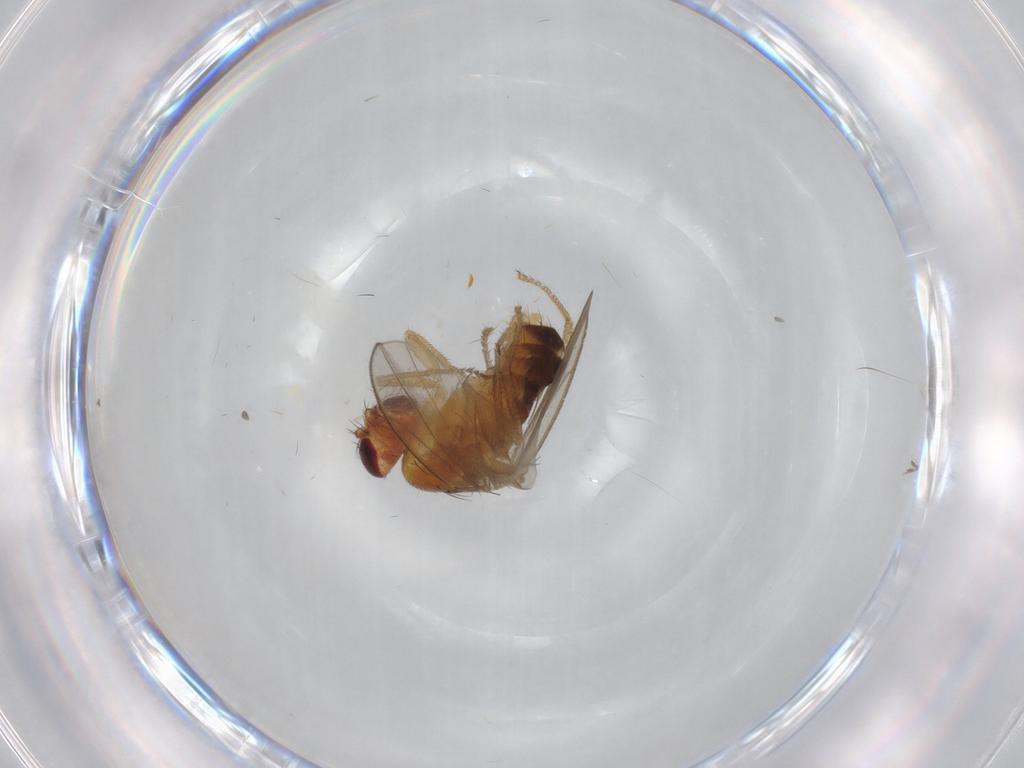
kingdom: Animalia
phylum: Arthropoda
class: Insecta
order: Diptera
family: Drosophilidae
